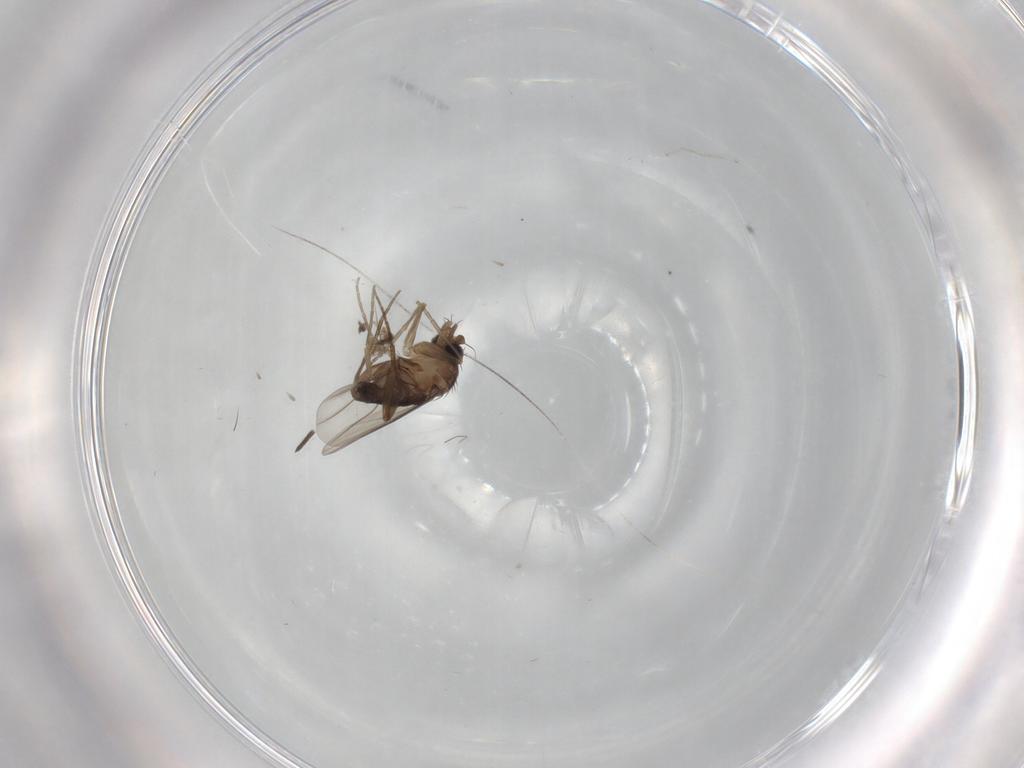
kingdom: Animalia
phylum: Arthropoda
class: Insecta
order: Diptera
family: Phoridae
